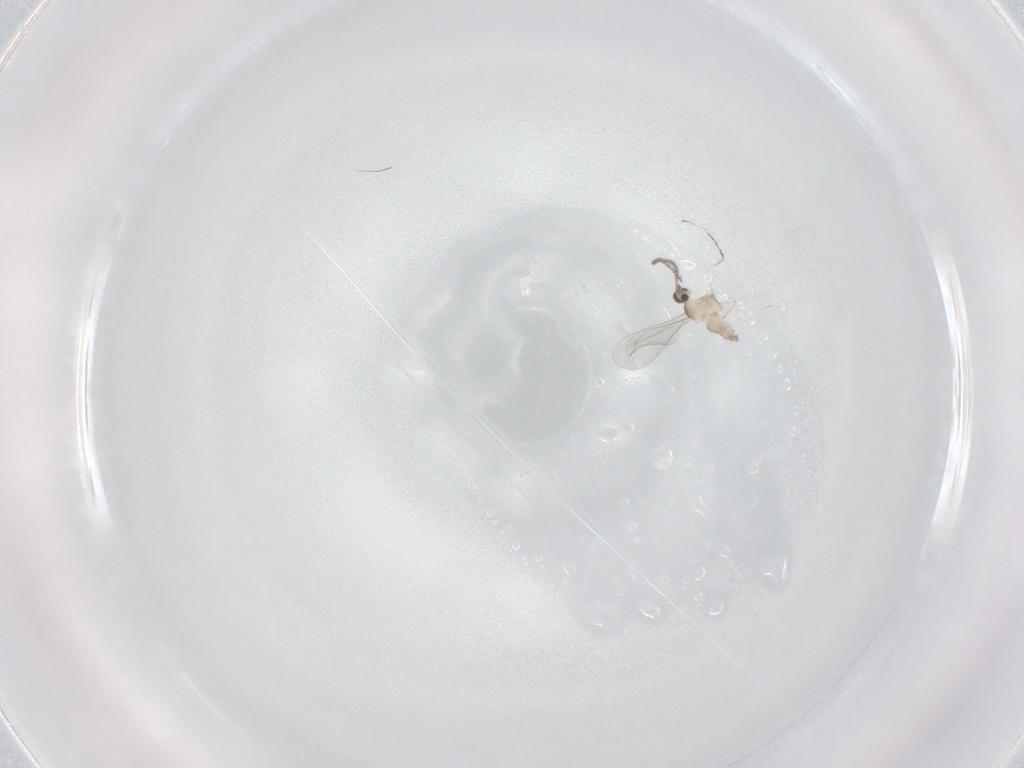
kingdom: Animalia
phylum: Arthropoda
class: Insecta
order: Diptera
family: Cecidomyiidae
